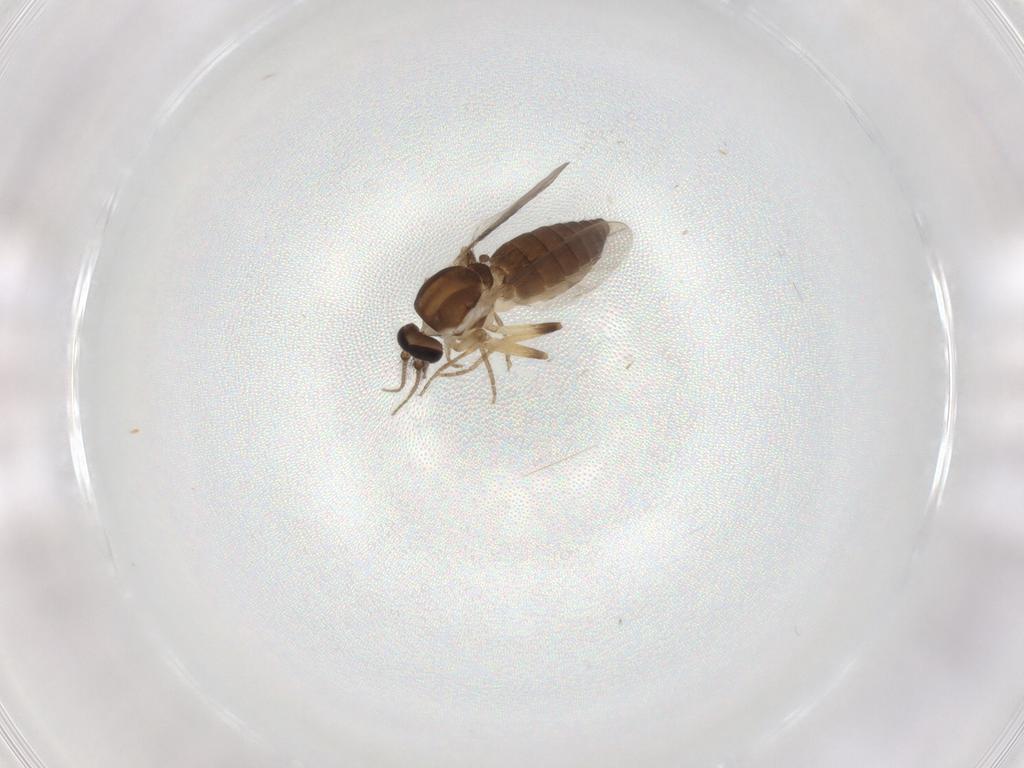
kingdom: Animalia
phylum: Arthropoda
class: Insecta
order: Diptera
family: Ceratopogonidae
